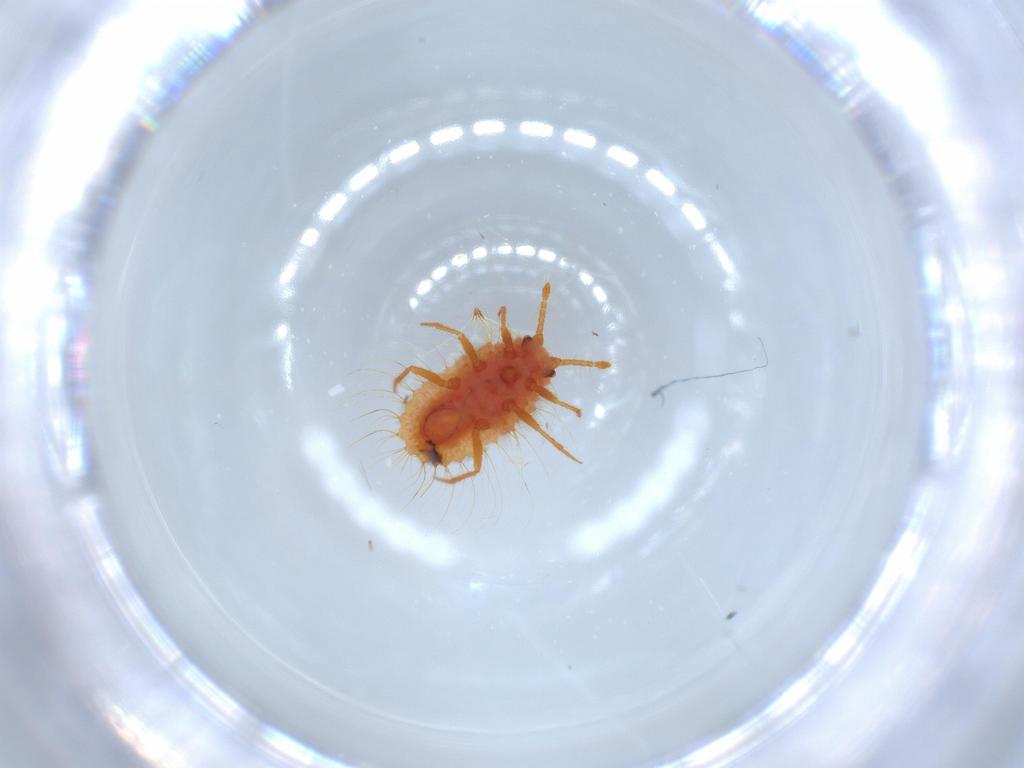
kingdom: Animalia
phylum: Arthropoda
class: Insecta
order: Hemiptera
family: Coccoidea_incertae_sedis
